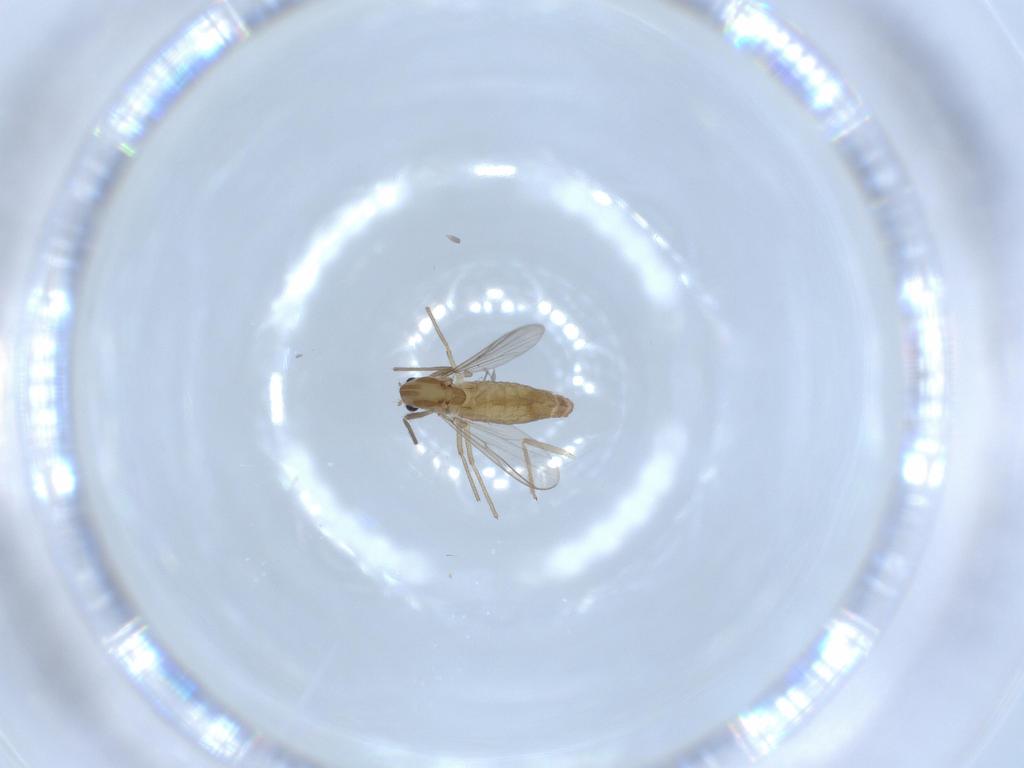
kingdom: Animalia
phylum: Arthropoda
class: Insecta
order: Diptera
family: Chironomidae
